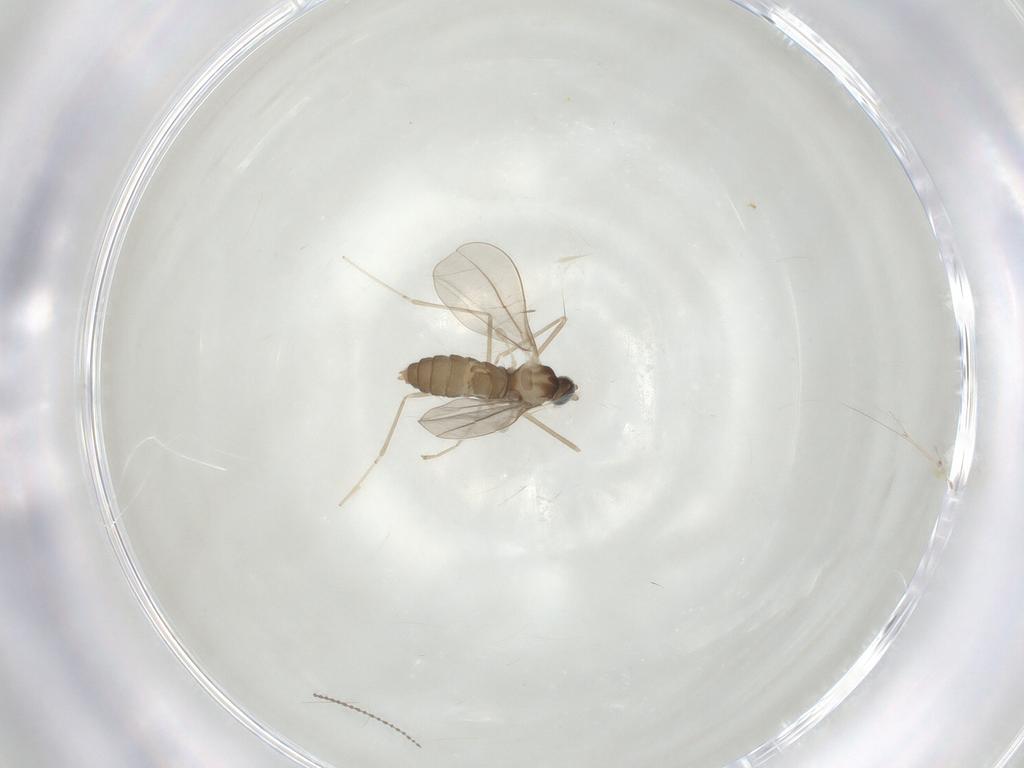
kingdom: Animalia
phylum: Arthropoda
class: Insecta
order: Diptera
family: Cecidomyiidae
